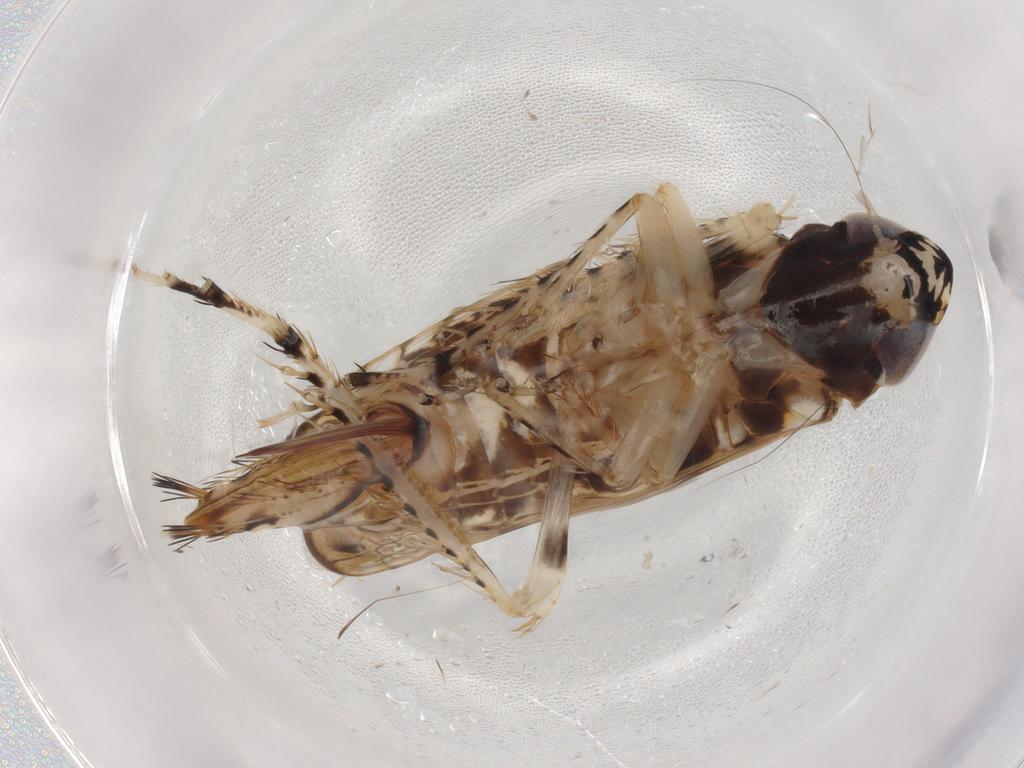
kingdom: Animalia
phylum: Arthropoda
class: Insecta
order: Hemiptera
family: Cicadellidae
